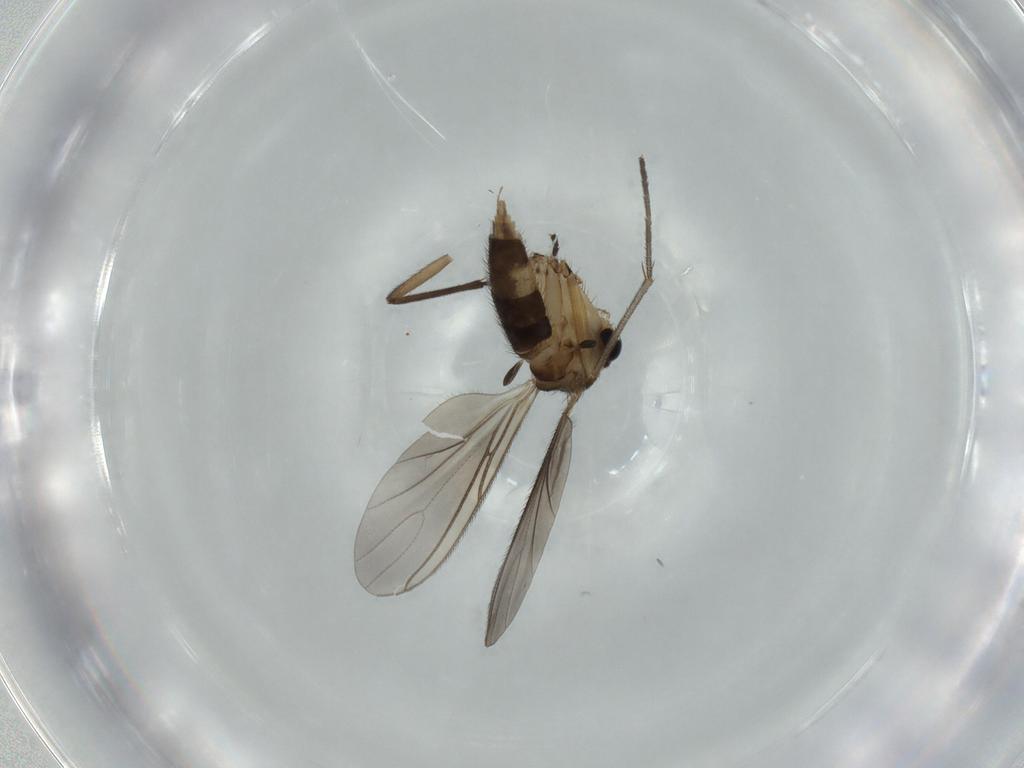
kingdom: Animalia
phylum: Arthropoda
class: Insecta
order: Diptera
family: Sciaridae
